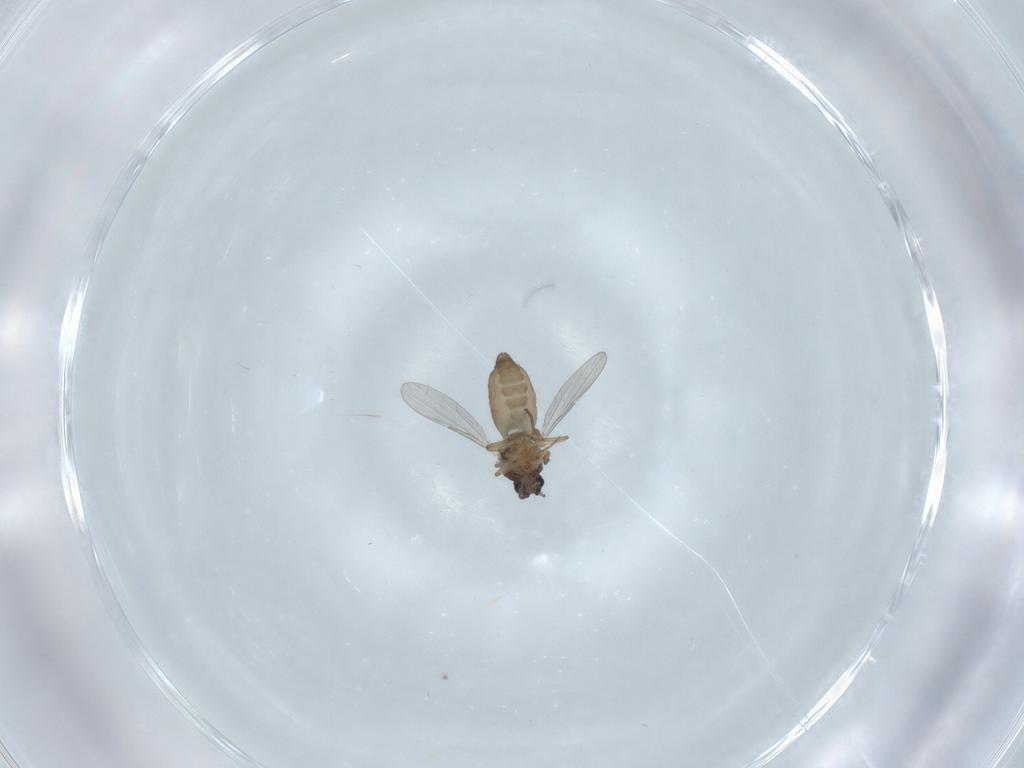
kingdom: Animalia
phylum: Arthropoda
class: Insecta
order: Diptera
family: Ceratopogonidae
